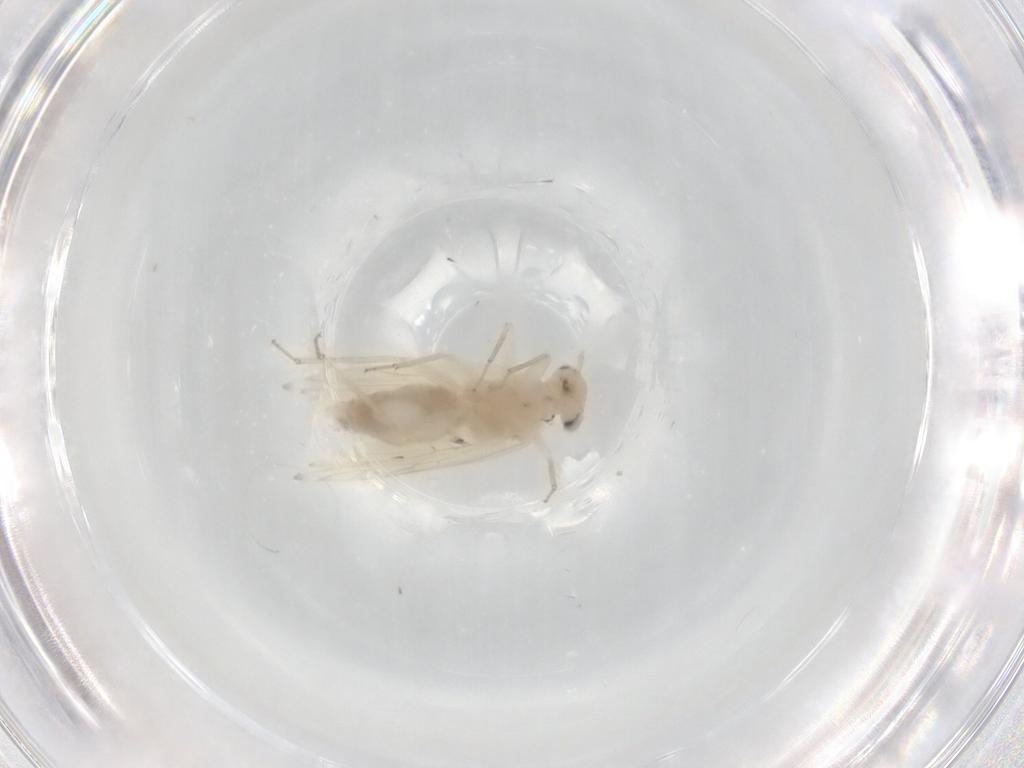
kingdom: Animalia
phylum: Arthropoda
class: Insecta
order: Psocodea
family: Lepidopsocidae
